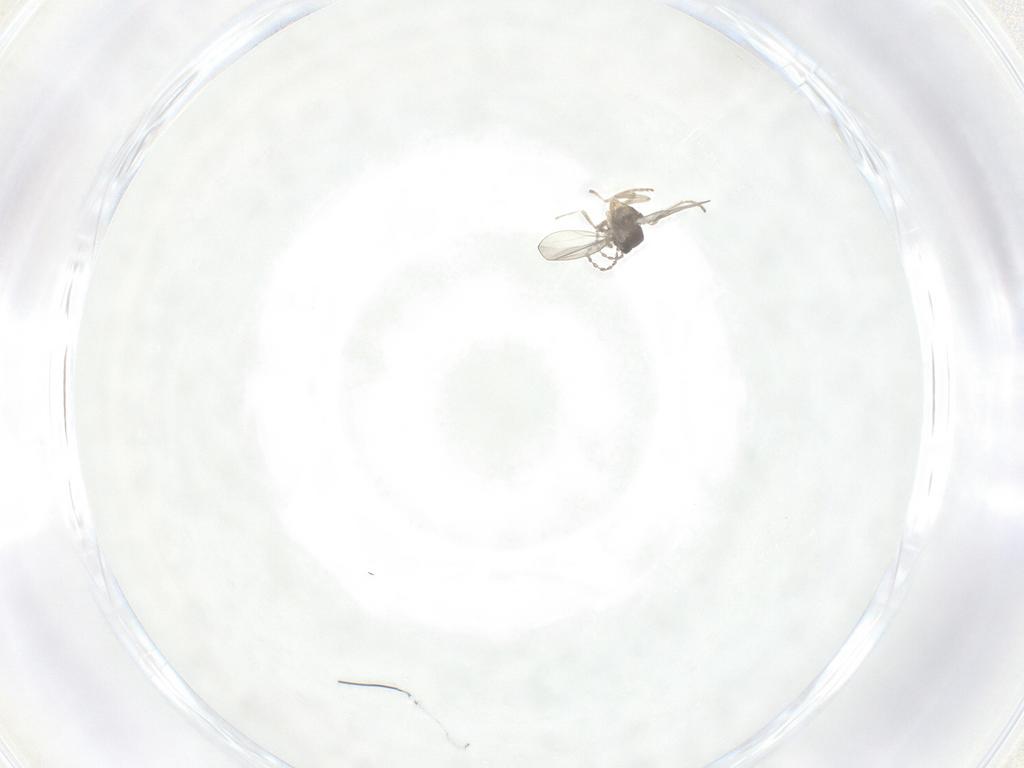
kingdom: Animalia
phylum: Arthropoda
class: Insecta
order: Diptera
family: Cecidomyiidae
